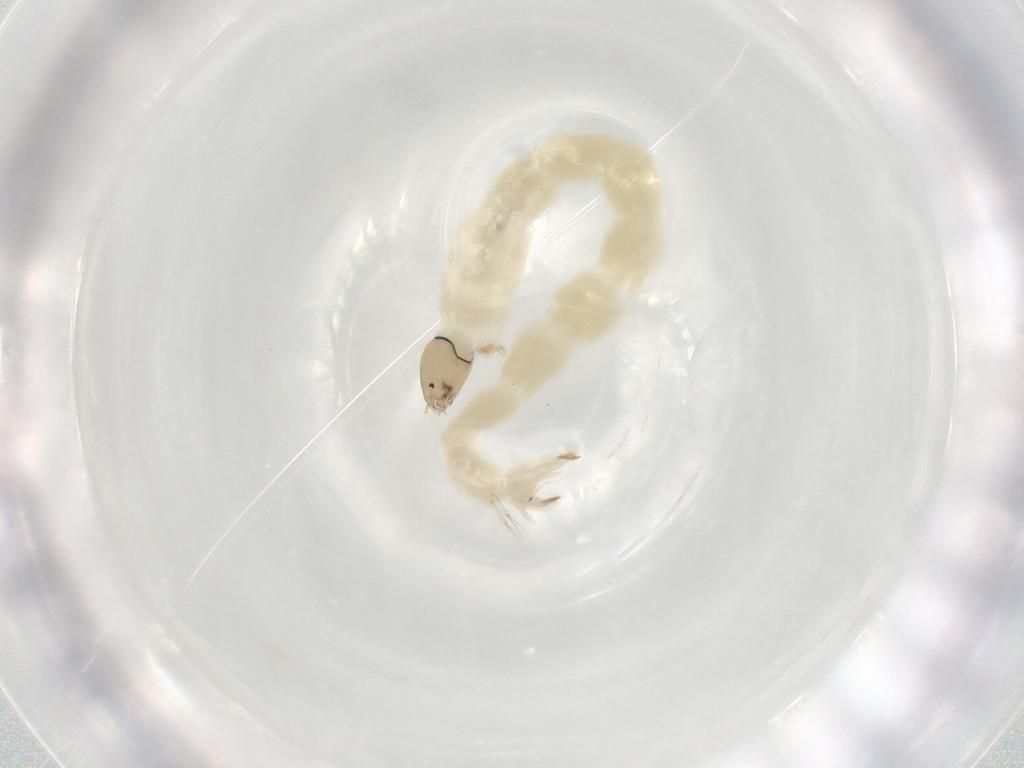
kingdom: Animalia
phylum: Arthropoda
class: Insecta
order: Diptera
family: Chironomidae
